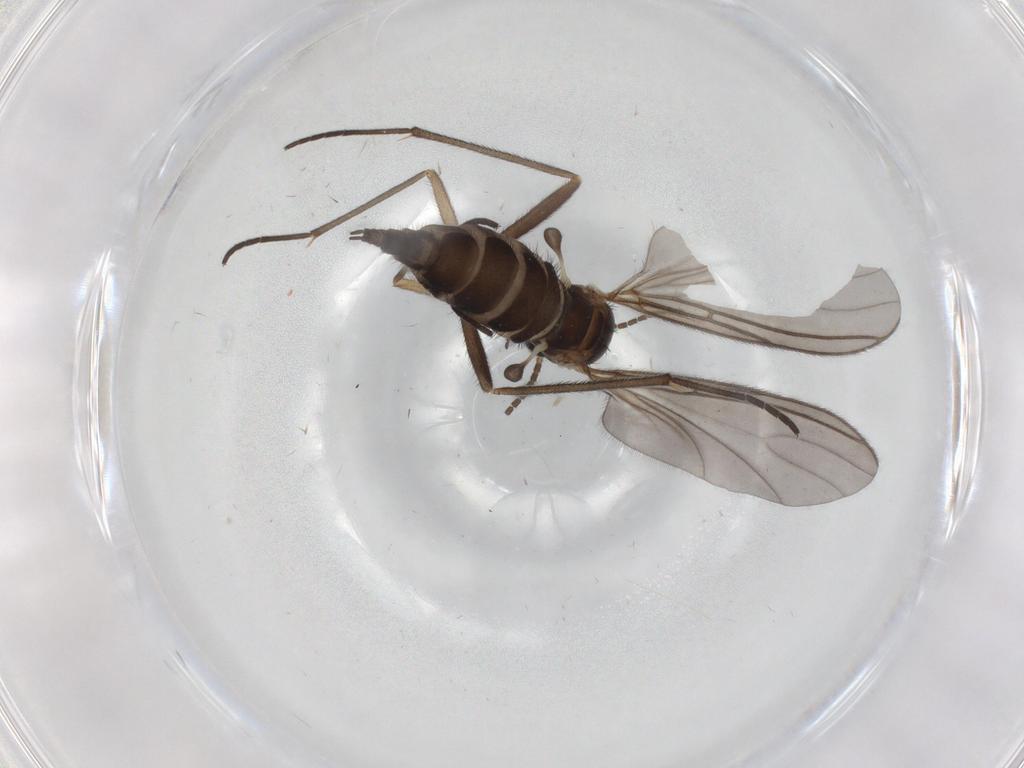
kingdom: Animalia
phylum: Arthropoda
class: Insecta
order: Diptera
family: Sciaridae
